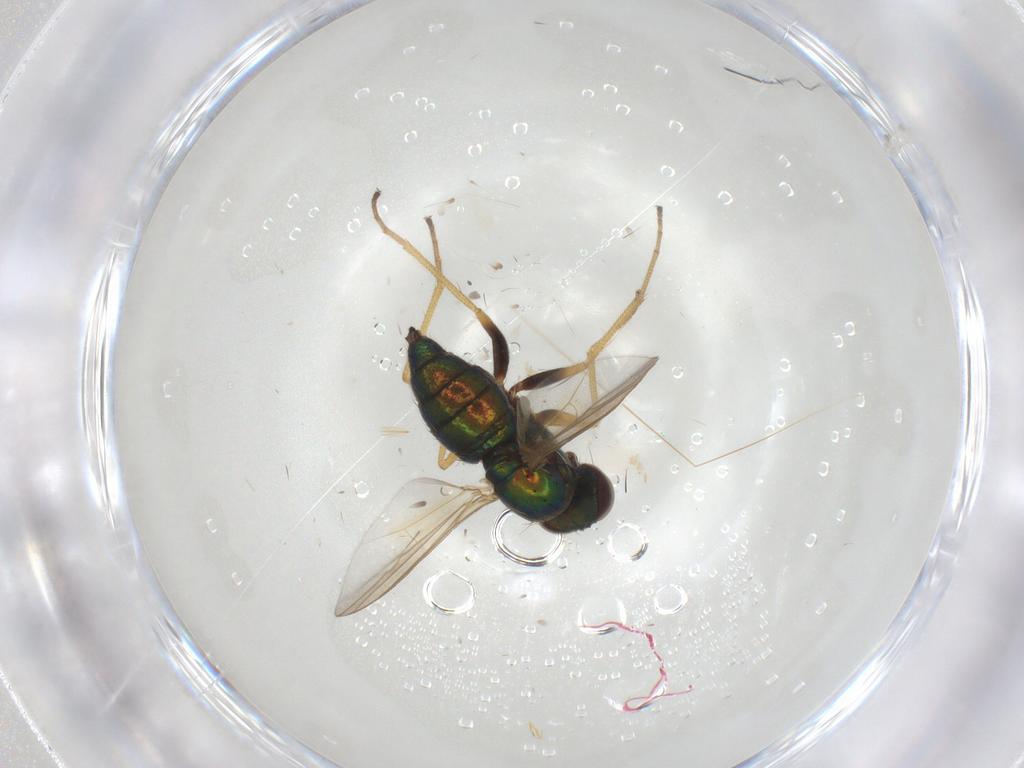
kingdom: Animalia
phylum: Arthropoda
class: Insecta
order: Diptera
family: Dolichopodidae
